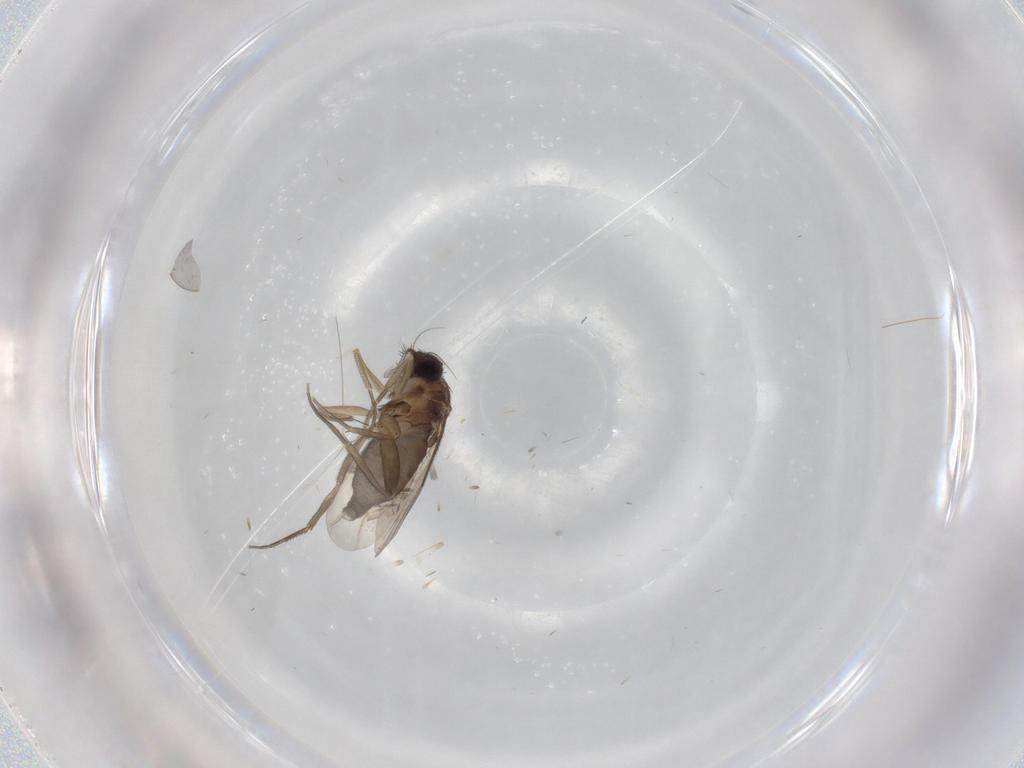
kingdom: Animalia
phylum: Arthropoda
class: Insecta
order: Diptera
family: Phoridae
